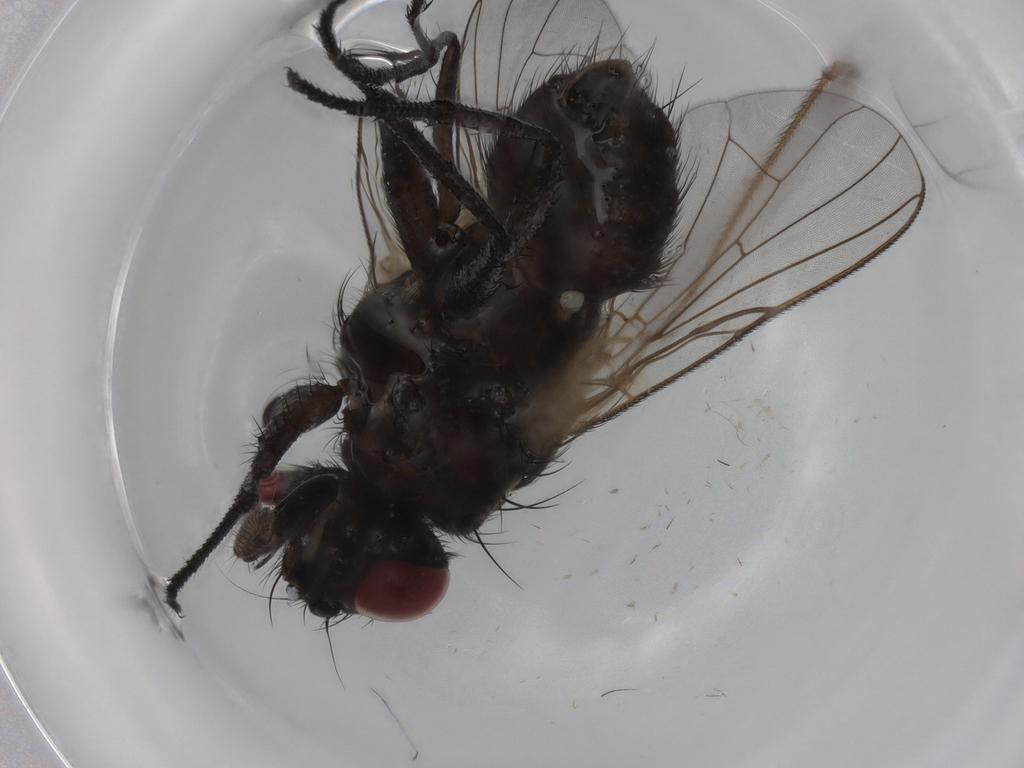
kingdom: Animalia
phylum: Arthropoda
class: Insecta
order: Diptera
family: Muscidae
